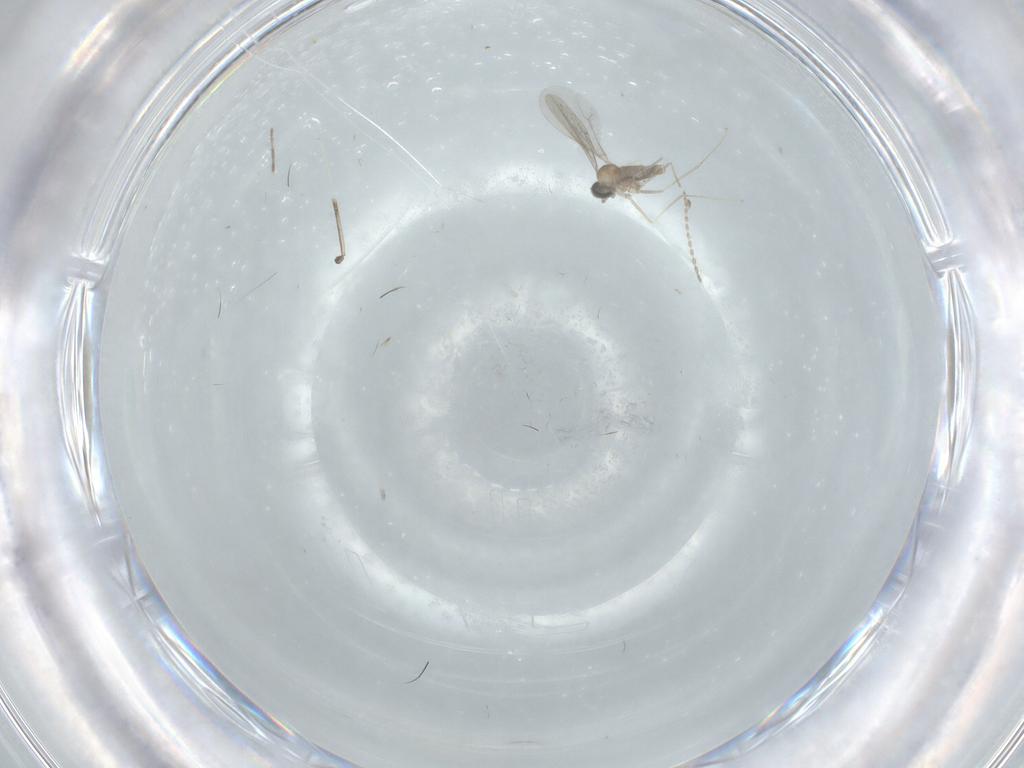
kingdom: Animalia
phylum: Arthropoda
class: Insecta
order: Diptera
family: Cecidomyiidae
